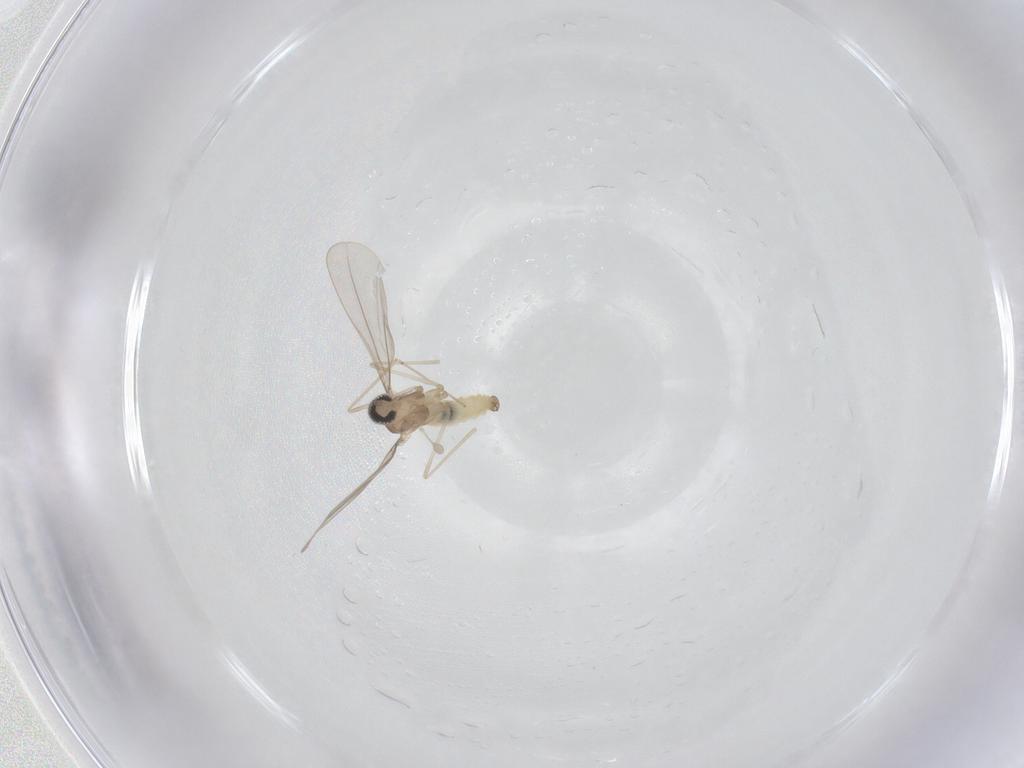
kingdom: Animalia
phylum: Arthropoda
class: Insecta
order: Diptera
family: Cecidomyiidae
